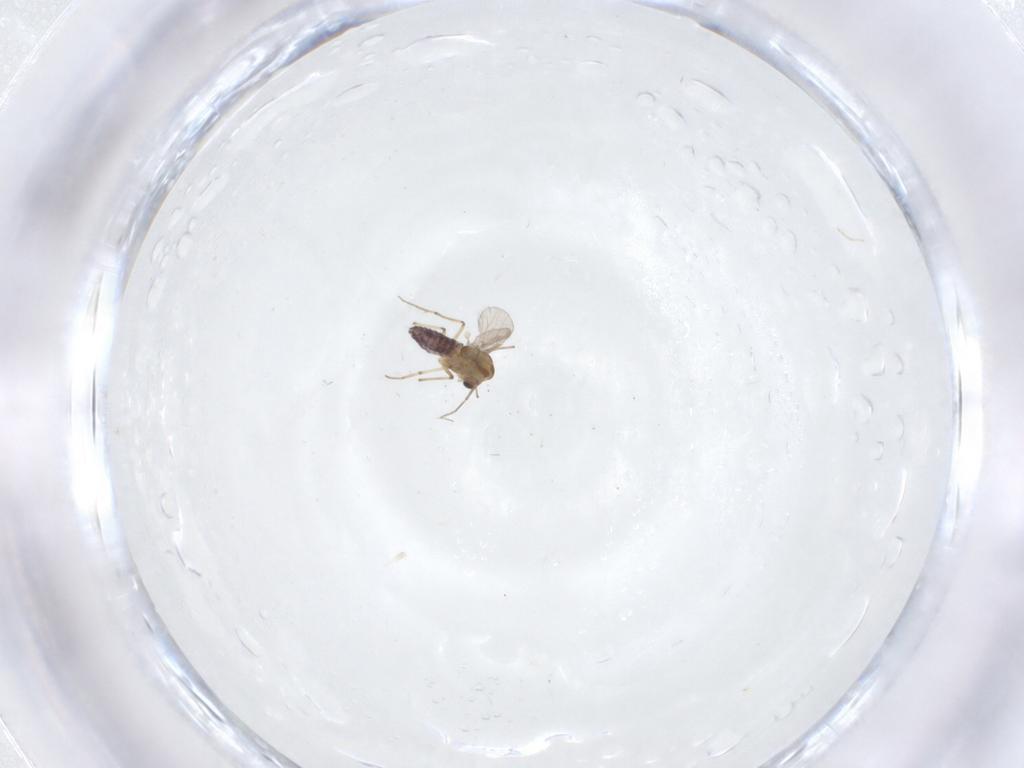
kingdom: Animalia
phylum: Arthropoda
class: Insecta
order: Diptera
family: Chironomidae
